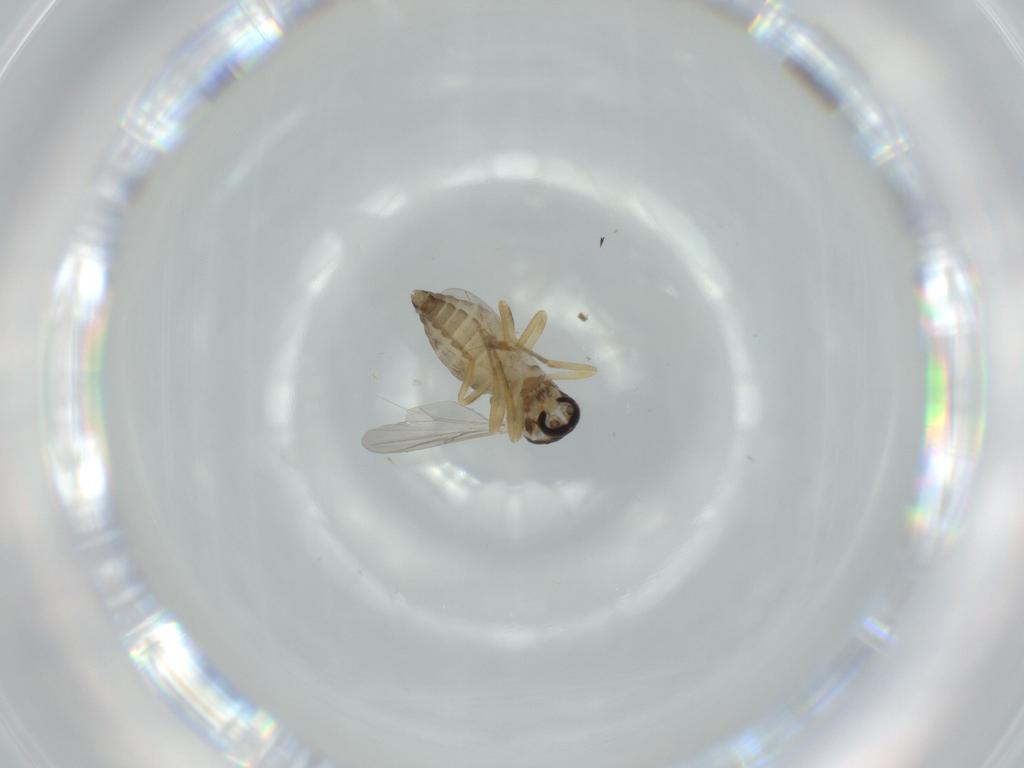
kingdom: Animalia
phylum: Arthropoda
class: Insecta
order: Diptera
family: Ceratopogonidae
